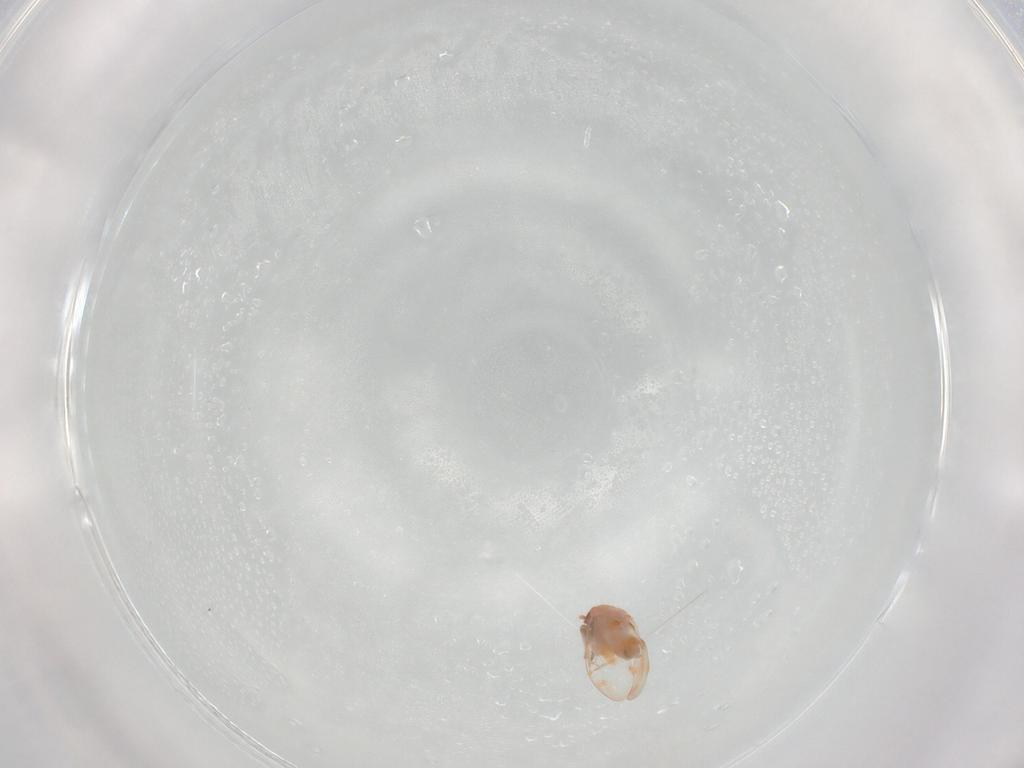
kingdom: Animalia
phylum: Arthropoda
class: Insecta
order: Hemiptera
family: Aleyrodidae
